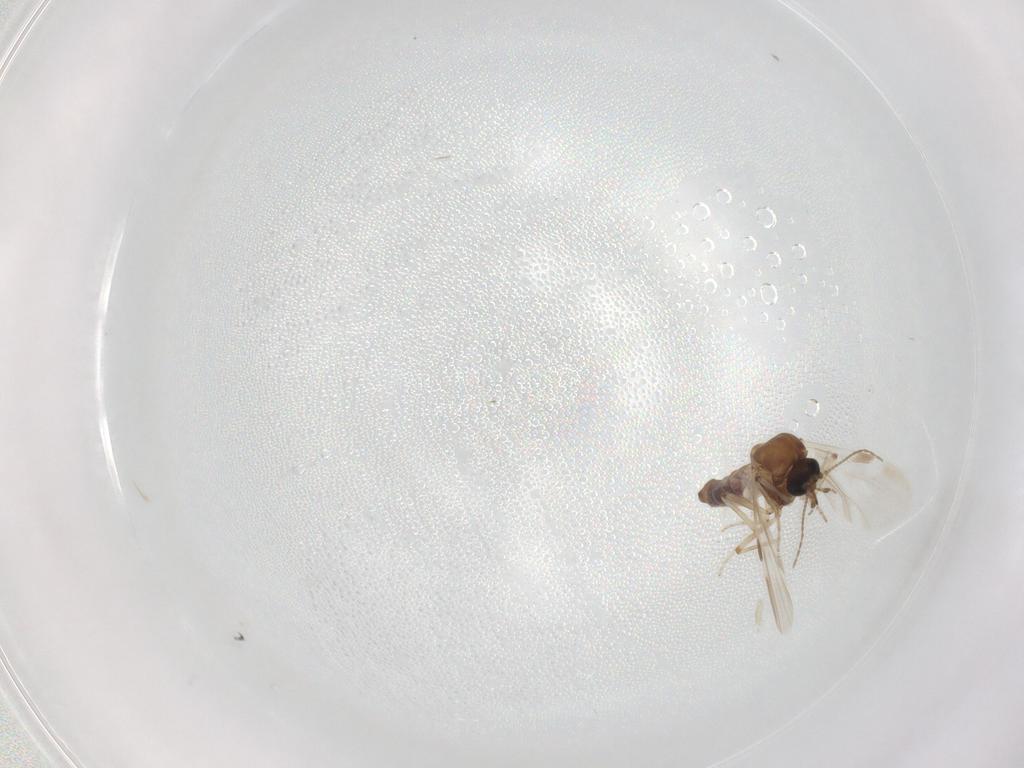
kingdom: Animalia
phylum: Arthropoda
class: Insecta
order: Diptera
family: Ceratopogonidae
